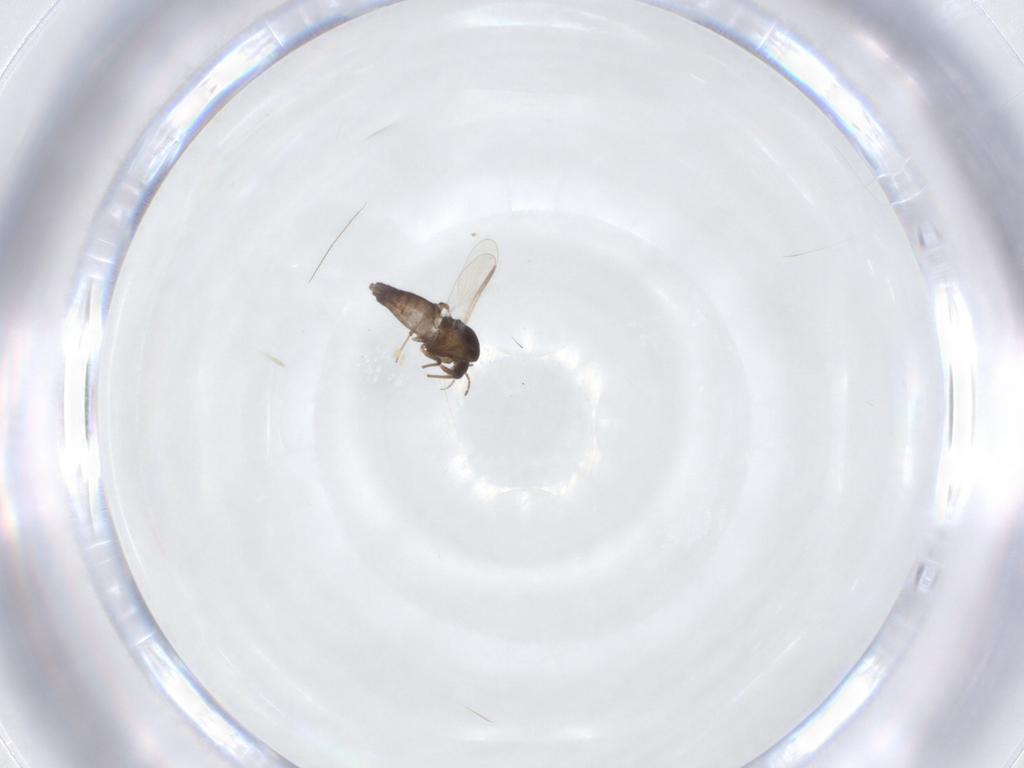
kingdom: Animalia
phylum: Arthropoda
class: Insecta
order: Diptera
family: Chironomidae
